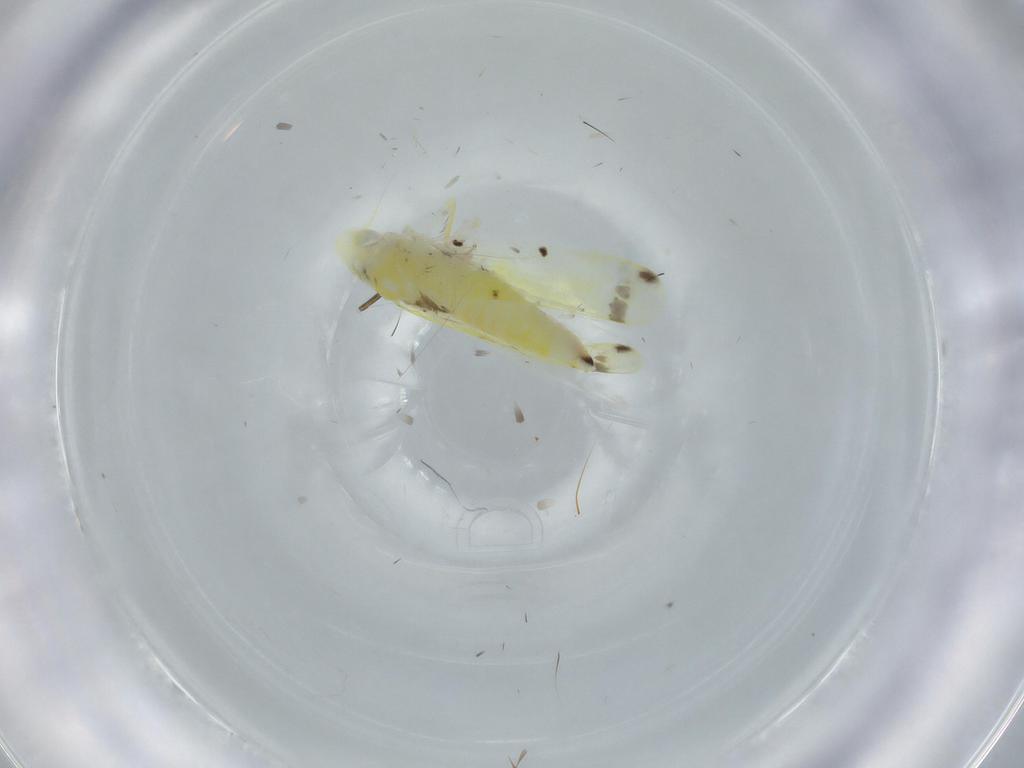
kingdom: Animalia
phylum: Arthropoda
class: Insecta
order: Hemiptera
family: Cicadellidae
